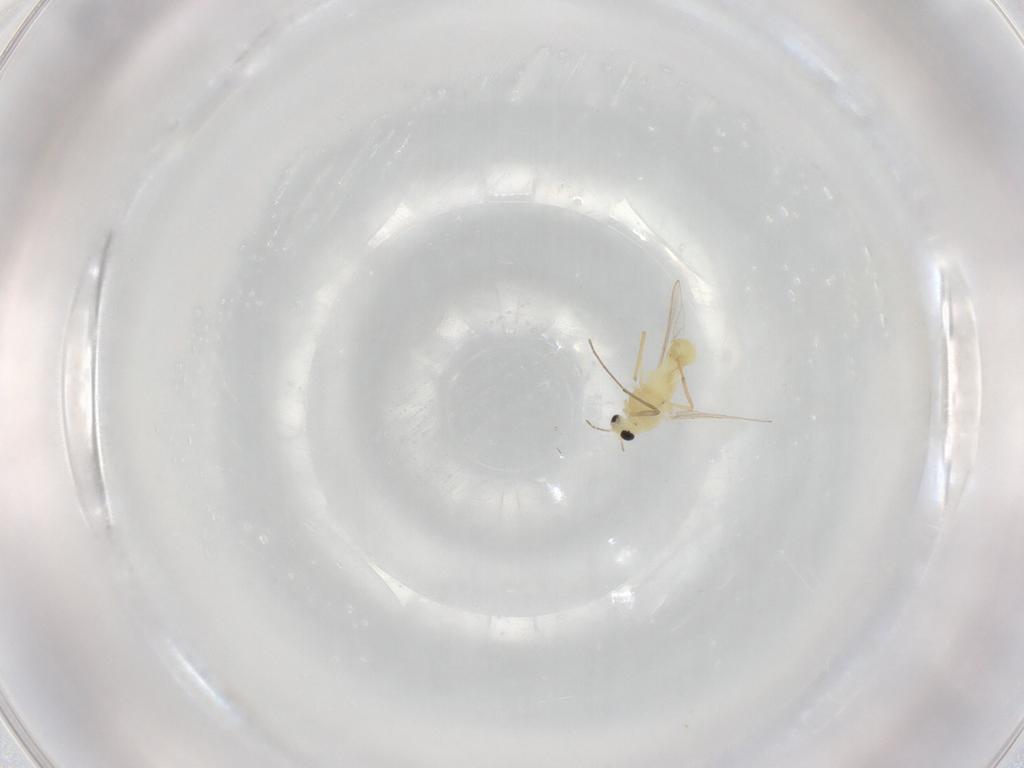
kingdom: Animalia
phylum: Arthropoda
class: Insecta
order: Diptera
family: Chironomidae
